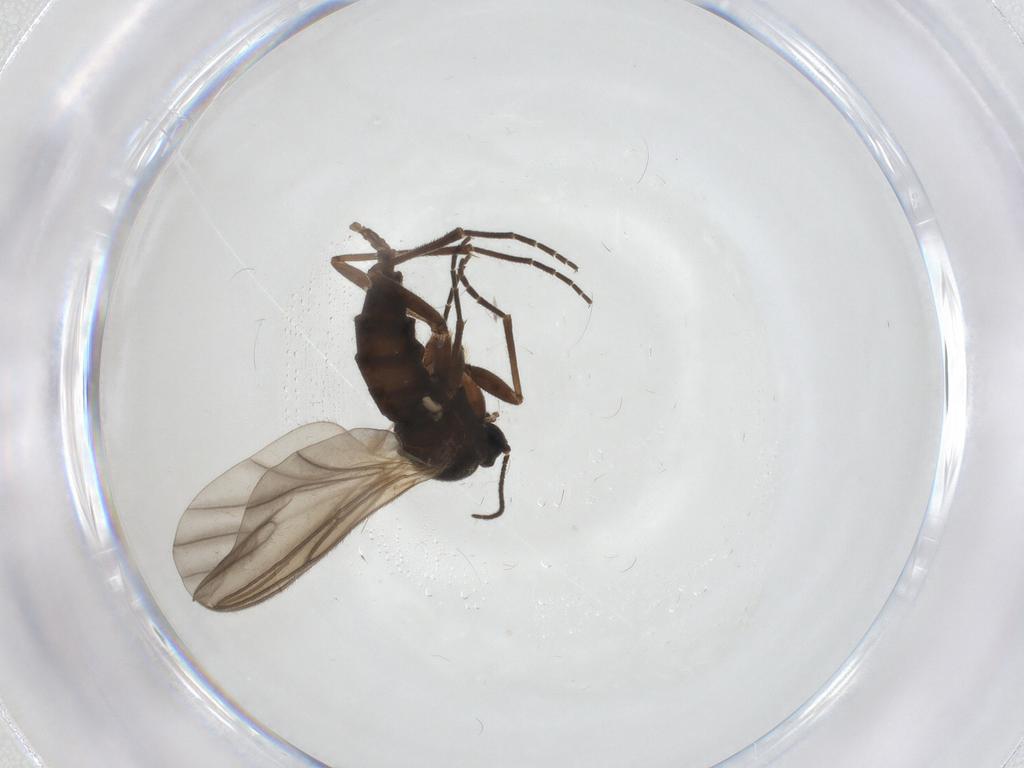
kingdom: Animalia
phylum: Arthropoda
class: Insecta
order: Diptera
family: Sciaridae
